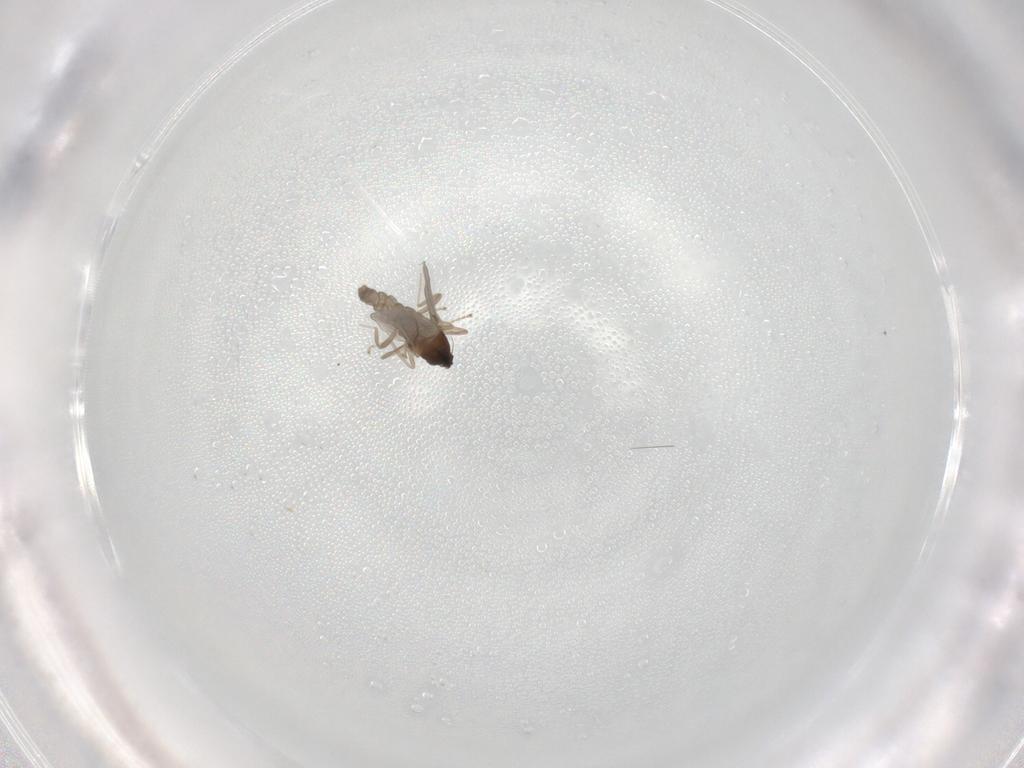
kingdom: Animalia
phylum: Arthropoda
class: Insecta
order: Diptera
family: Cecidomyiidae
